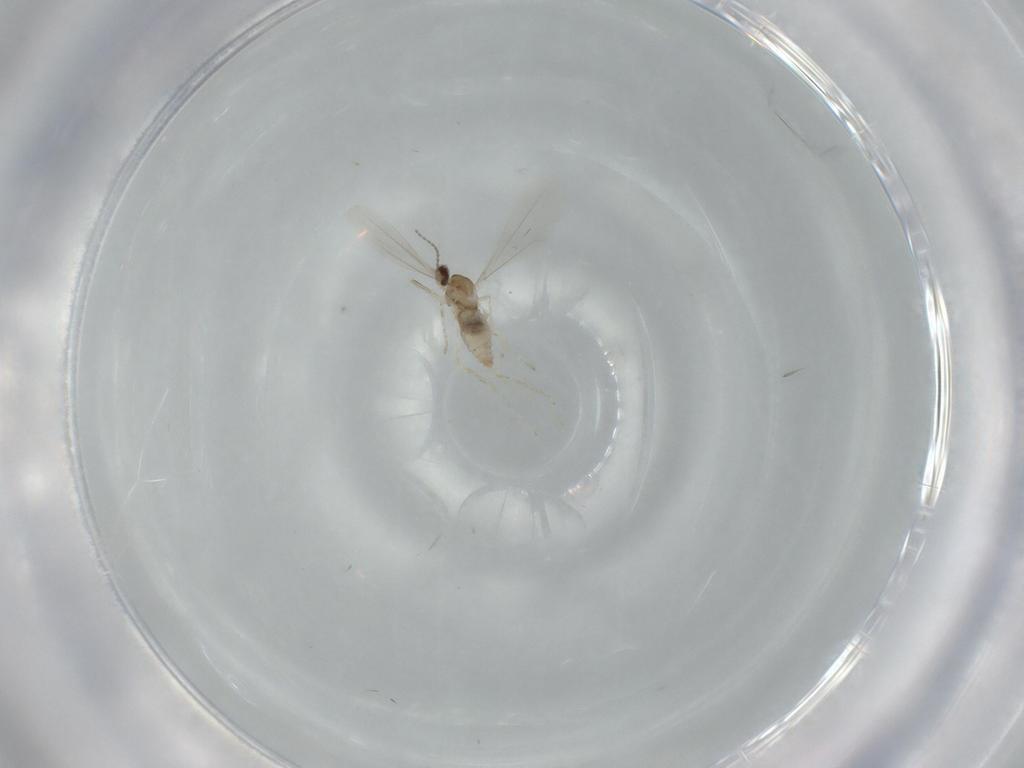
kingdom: Animalia
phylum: Arthropoda
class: Insecta
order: Diptera
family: Cecidomyiidae
